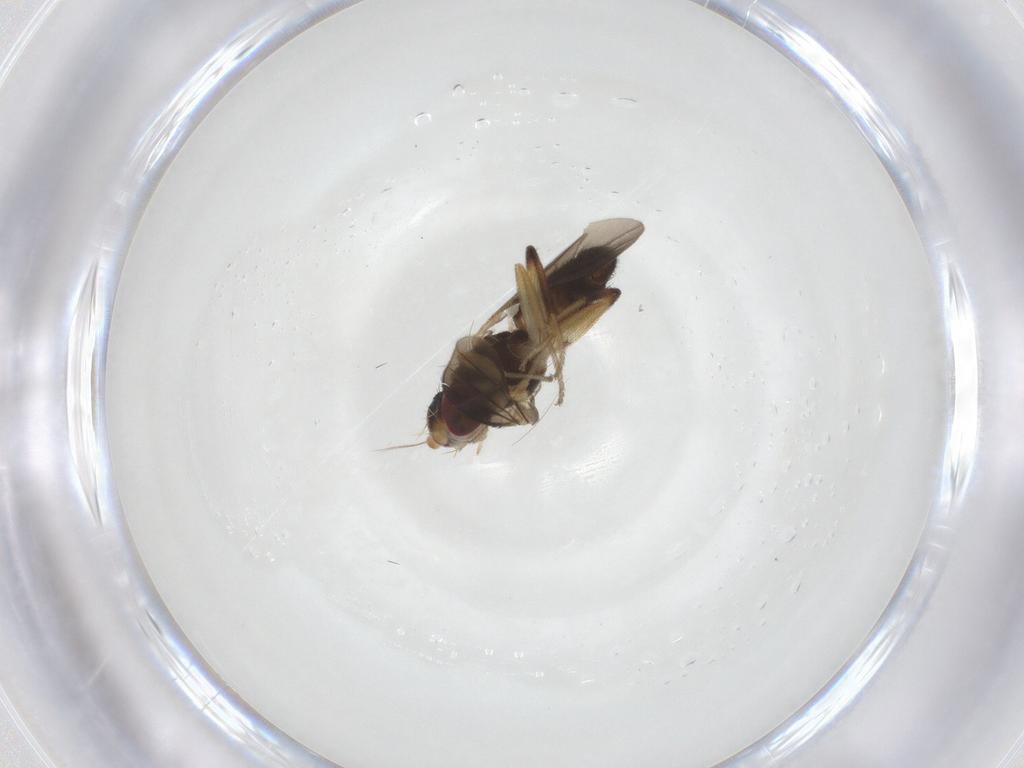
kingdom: Animalia
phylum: Arthropoda
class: Insecta
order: Diptera
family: Clusiidae
